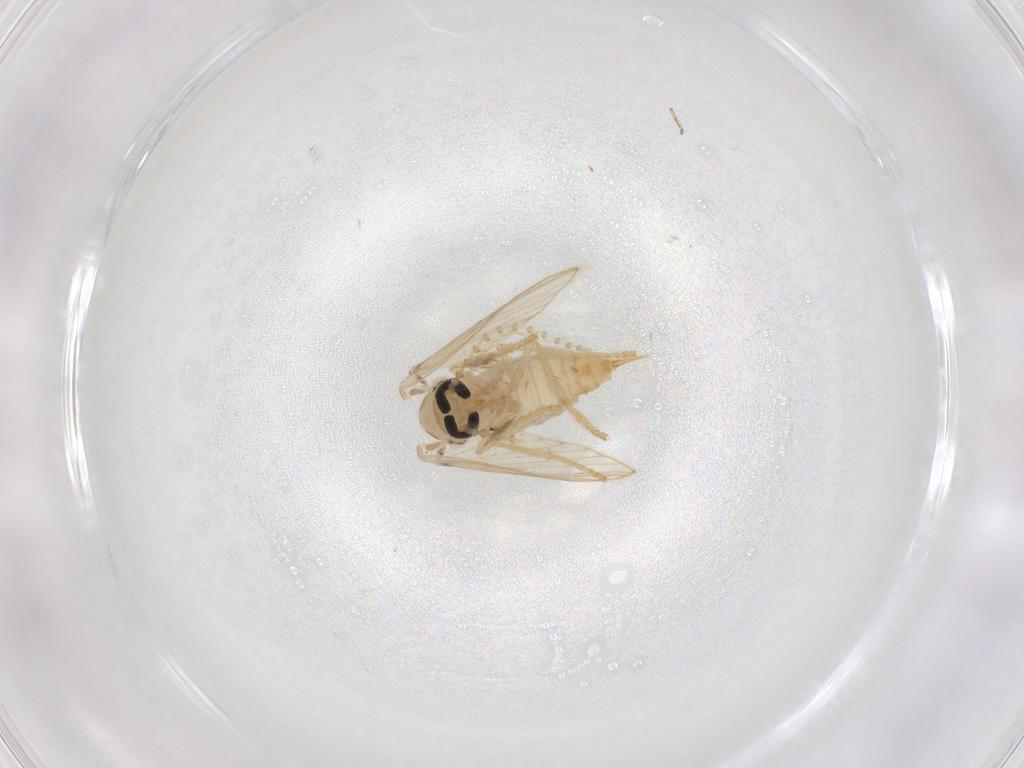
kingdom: Animalia
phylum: Arthropoda
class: Insecta
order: Diptera
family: Psychodidae
